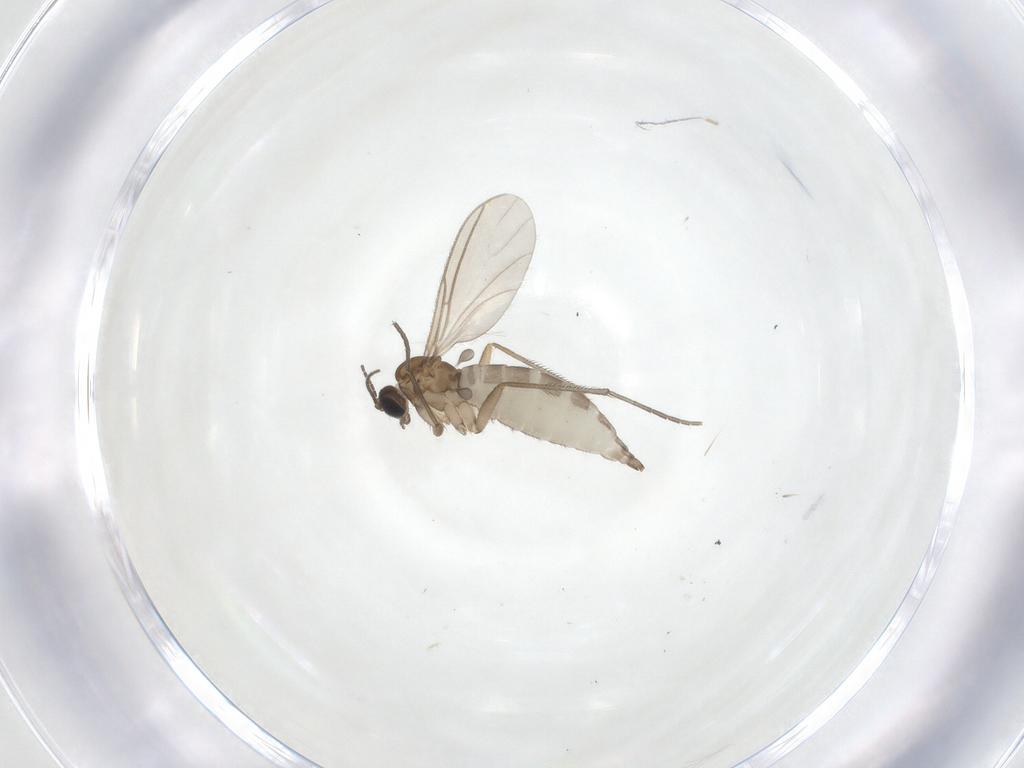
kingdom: Animalia
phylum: Arthropoda
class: Insecta
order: Diptera
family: Sciaridae
